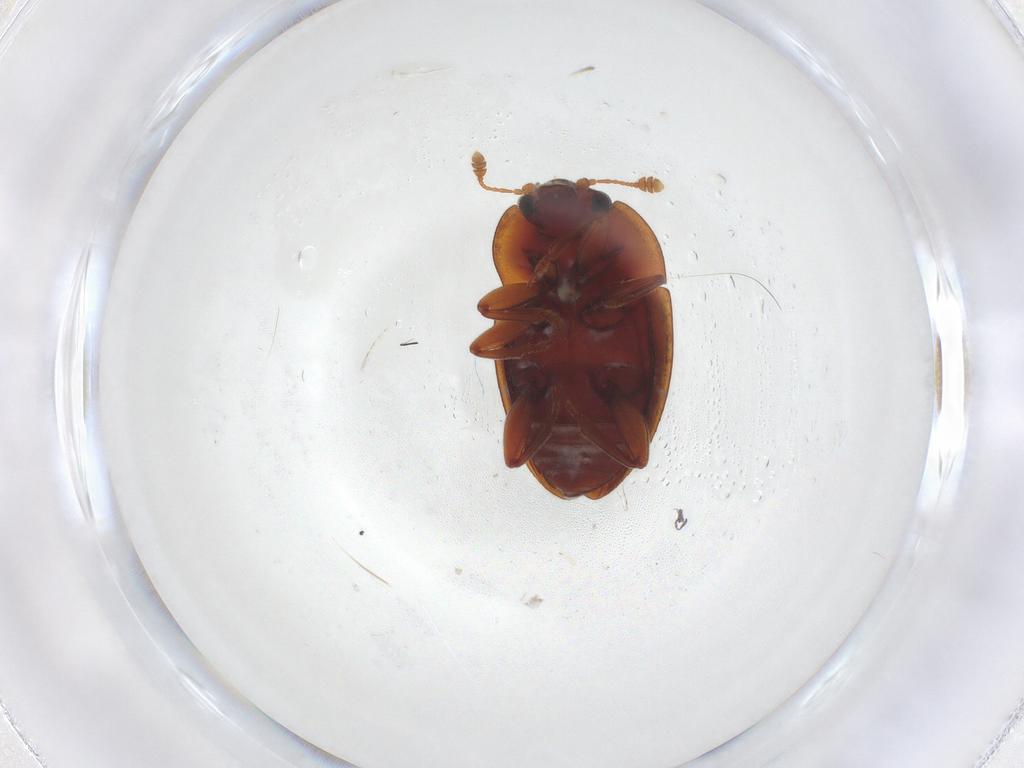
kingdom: Animalia
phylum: Arthropoda
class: Insecta
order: Coleoptera
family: Nitidulidae
